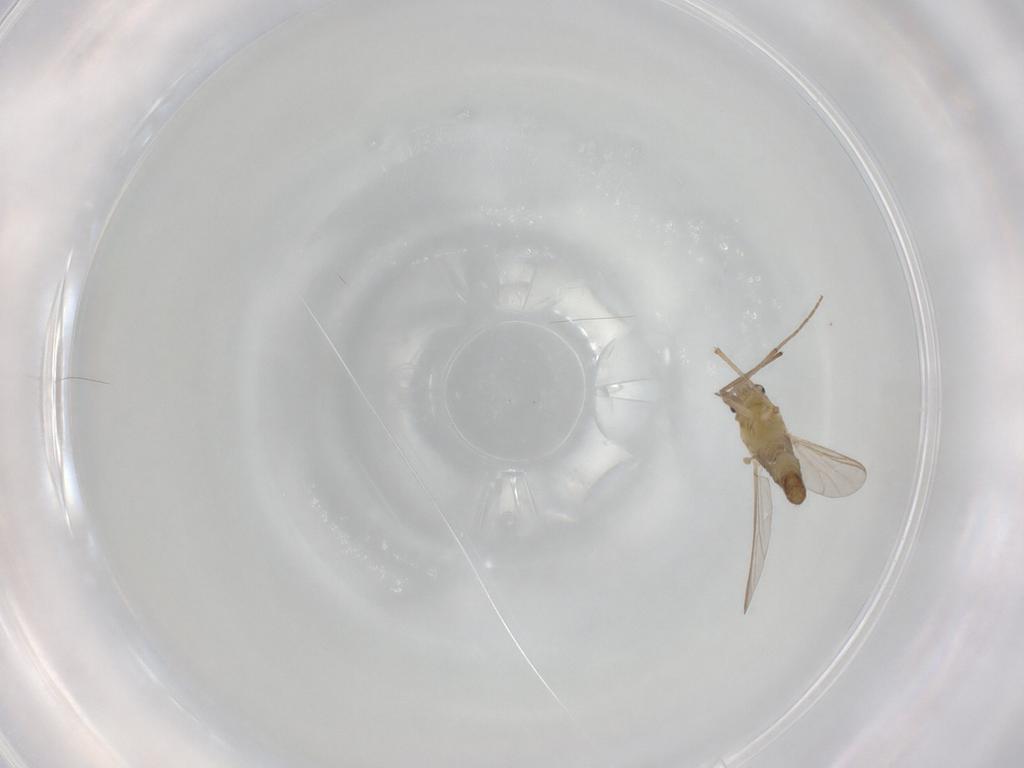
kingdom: Animalia
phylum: Arthropoda
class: Insecta
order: Diptera
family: Chironomidae
